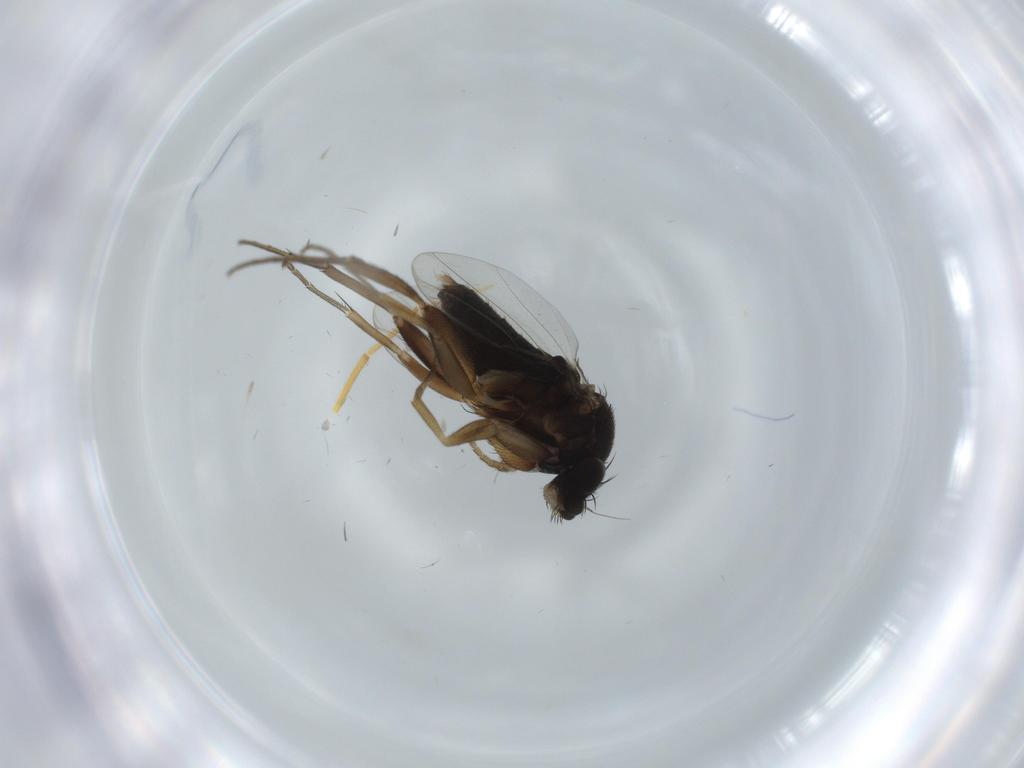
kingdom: Animalia
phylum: Arthropoda
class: Insecta
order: Diptera
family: Phoridae
